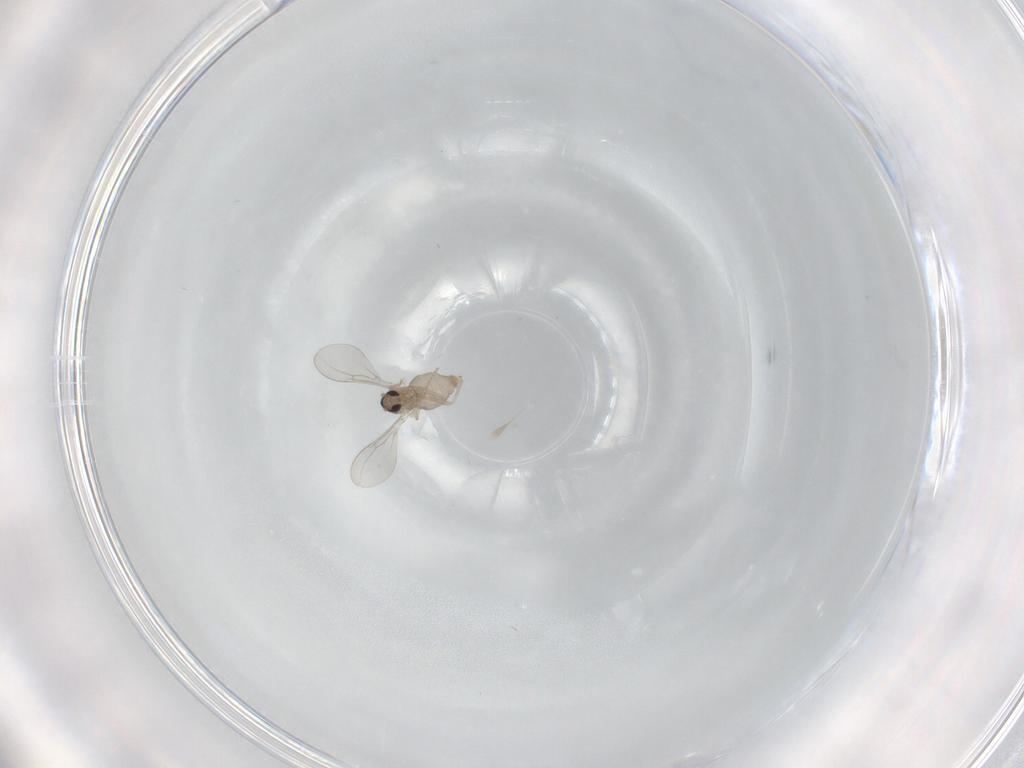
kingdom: Animalia
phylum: Arthropoda
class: Insecta
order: Diptera
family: Cecidomyiidae
